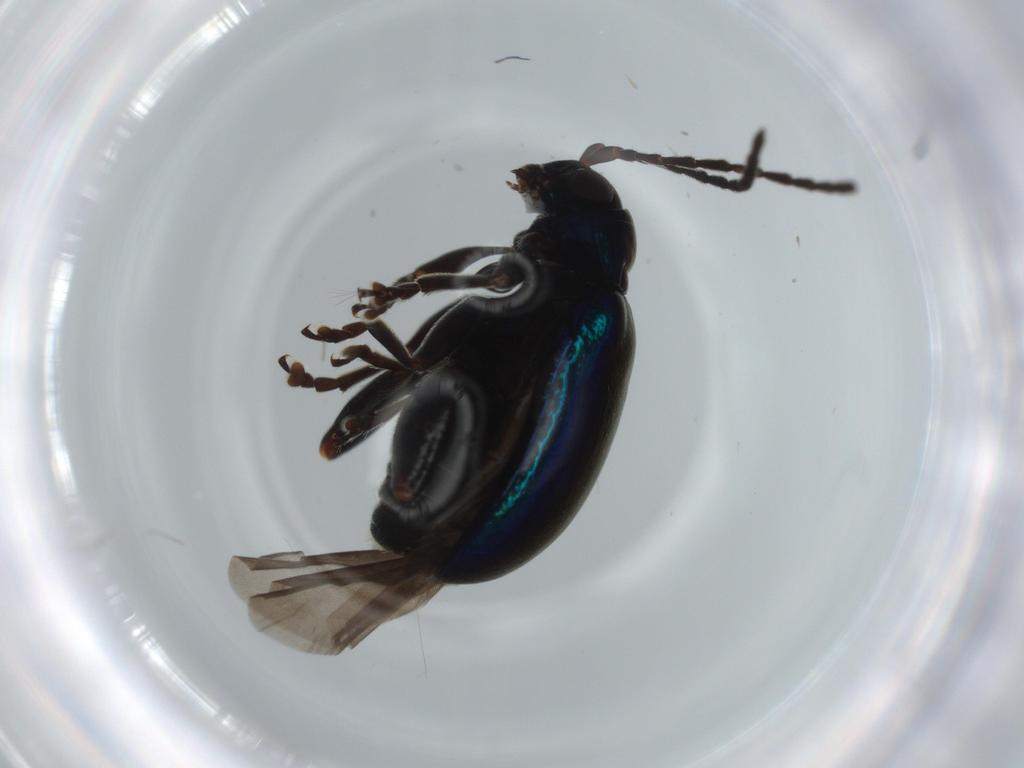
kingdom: Animalia
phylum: Arthropoda
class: Insecta
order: Coleoptera
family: Chrysomelidae
